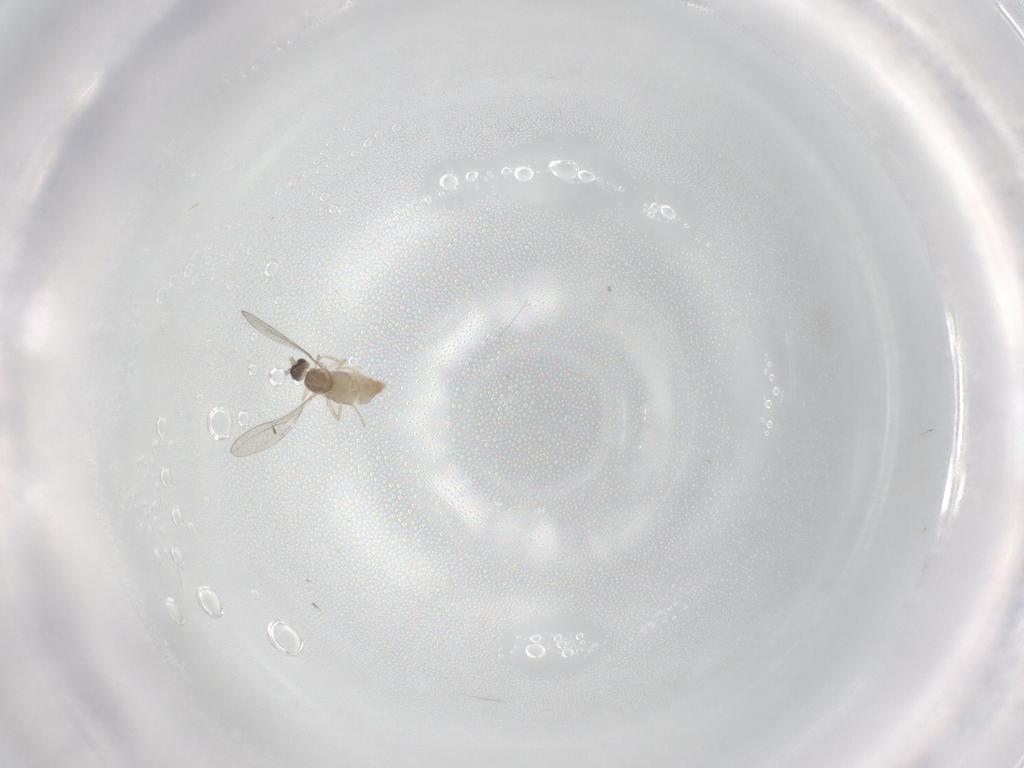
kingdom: Animalia
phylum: Arthropoda
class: Insecta
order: Diptera
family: Cecidomyiidae
